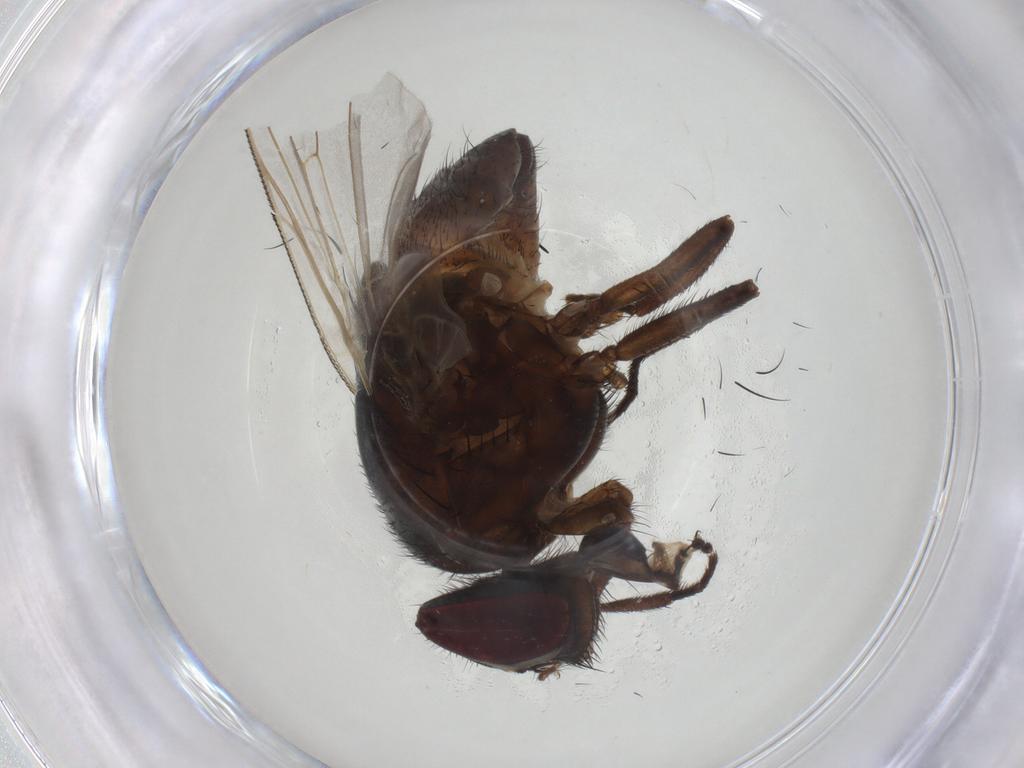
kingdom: Animalia
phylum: Arthropoda
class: Insecta
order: Diptera
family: Muscidae
